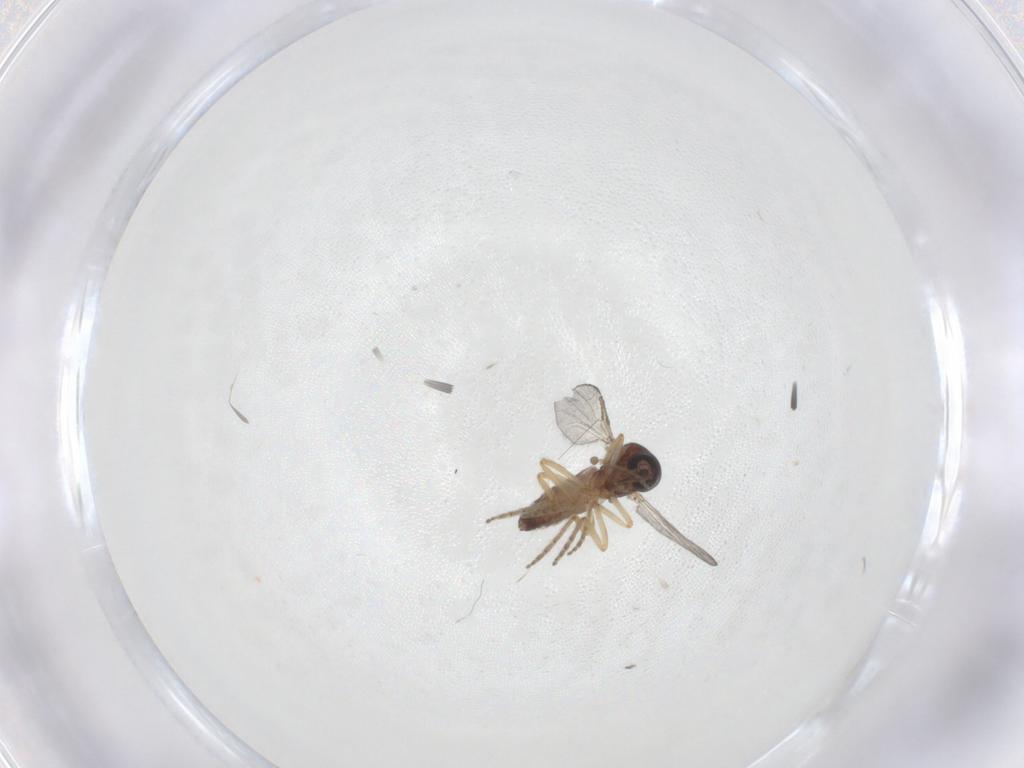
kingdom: Animalia
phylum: Arthropoda
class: Insecta
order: Diptera
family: Ceratopogonidae
